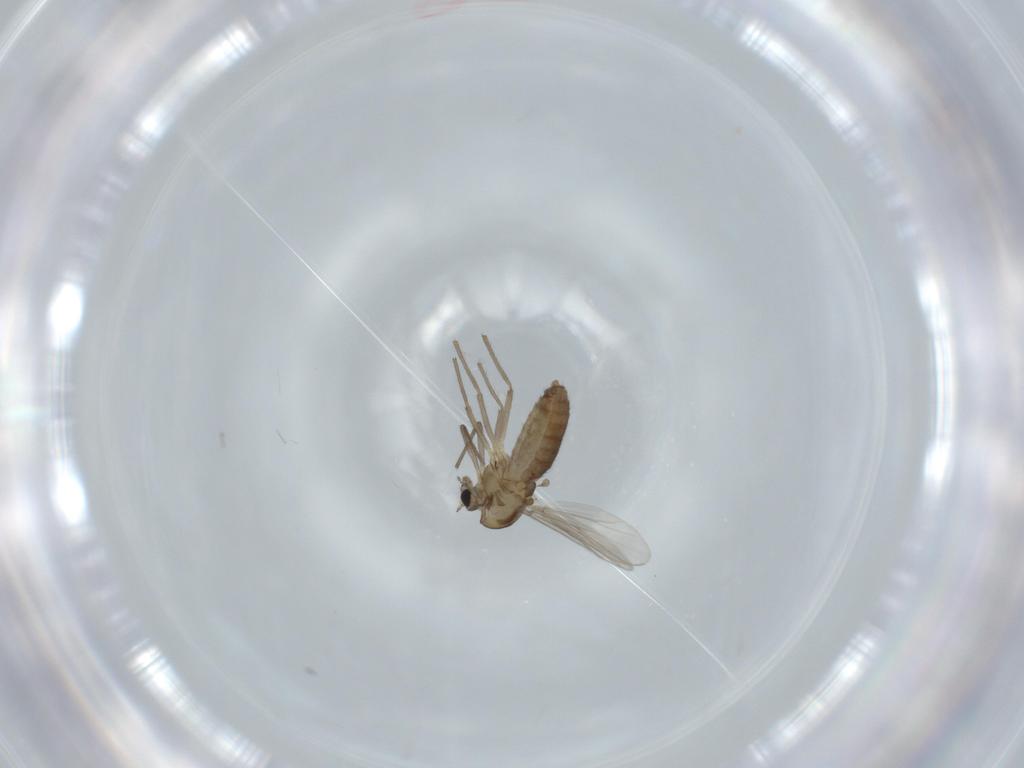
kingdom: Animalia
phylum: Arthropoda
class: Insecta
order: Diptera
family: Chironomidae
